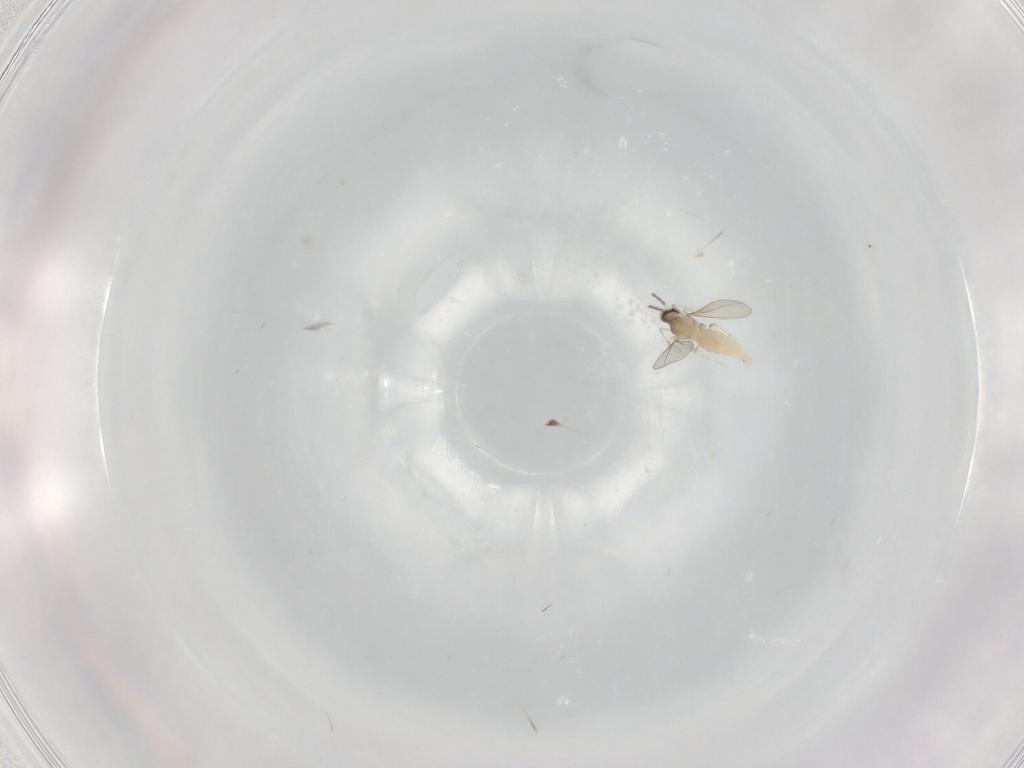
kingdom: Animalia
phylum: Arthropoda
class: Insecta
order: Diptera
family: Cecidomyiidae
